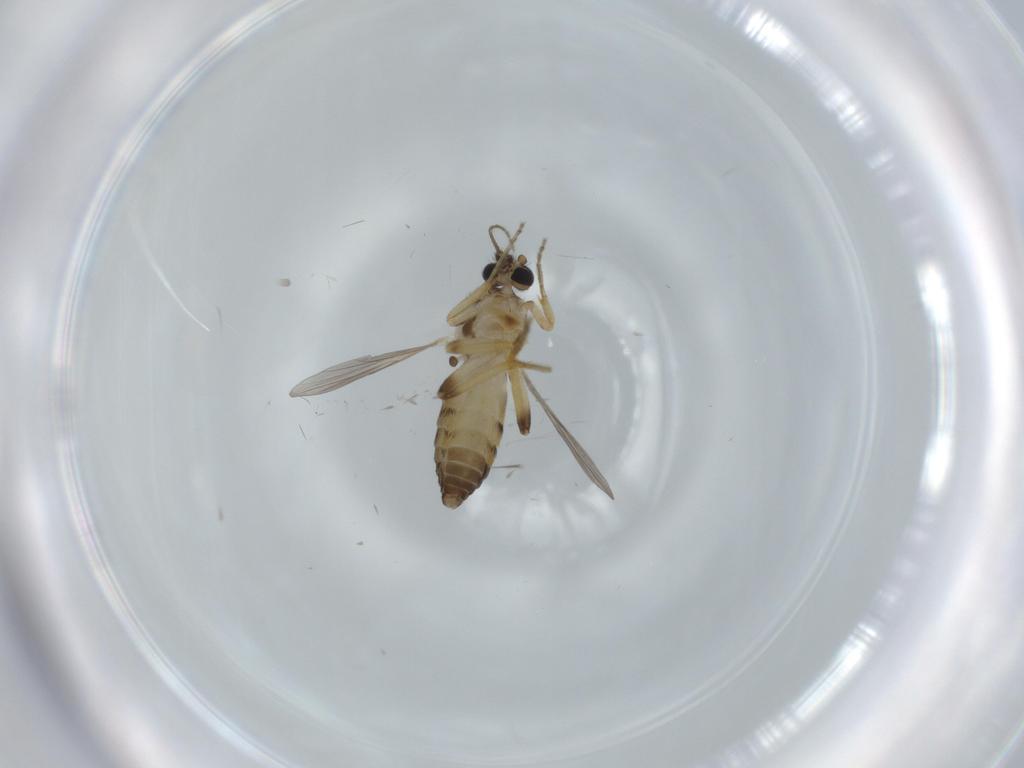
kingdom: Animalia
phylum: Arthropoda
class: Insecta
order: Diptera
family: Ceratopogonidae
